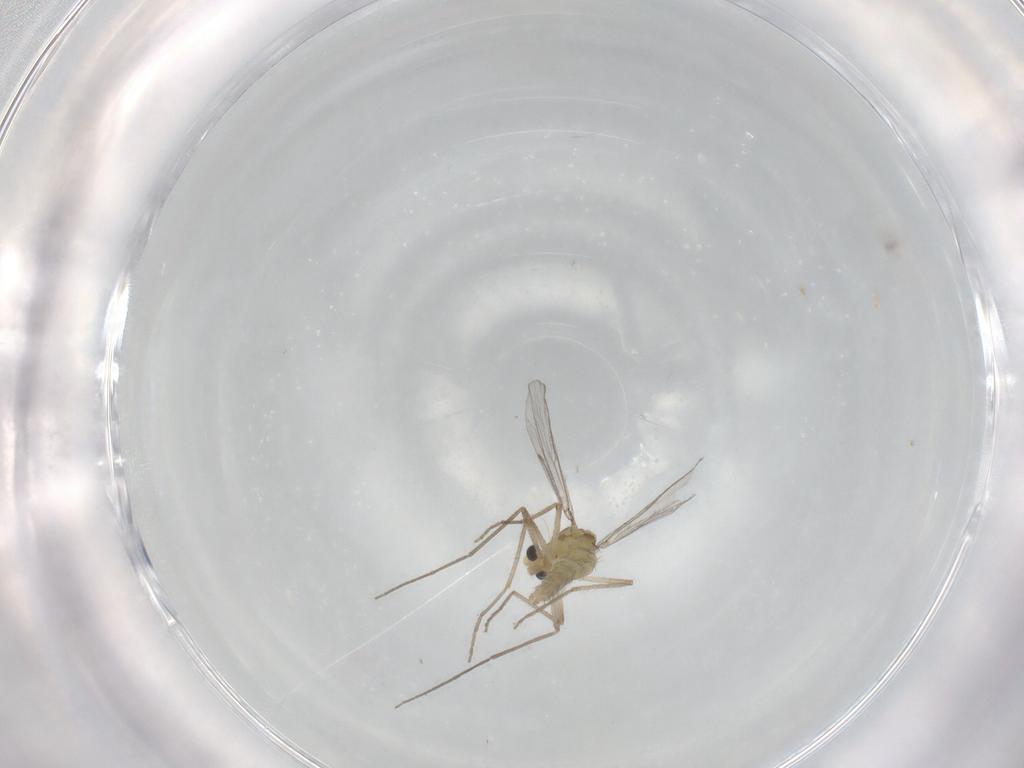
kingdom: Animalia
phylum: Arthropoda
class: Insecta
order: Diptera
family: Chironomidae
